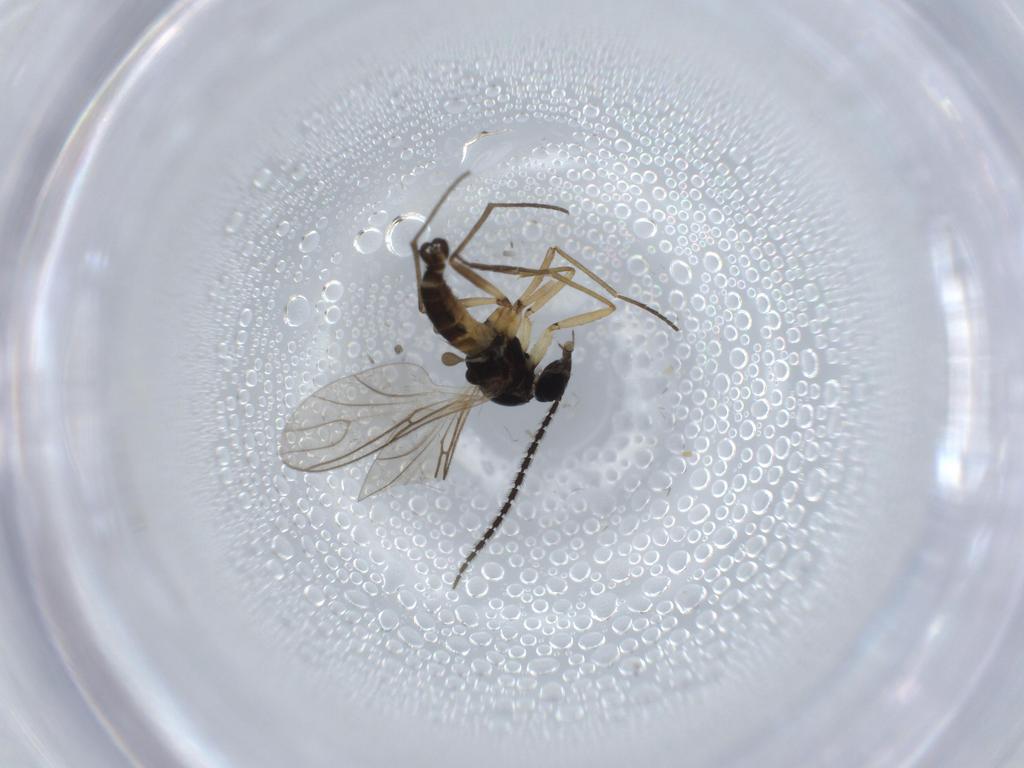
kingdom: Animalia
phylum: Arthropoda
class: Insecta
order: Diptera
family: Sciaridae
